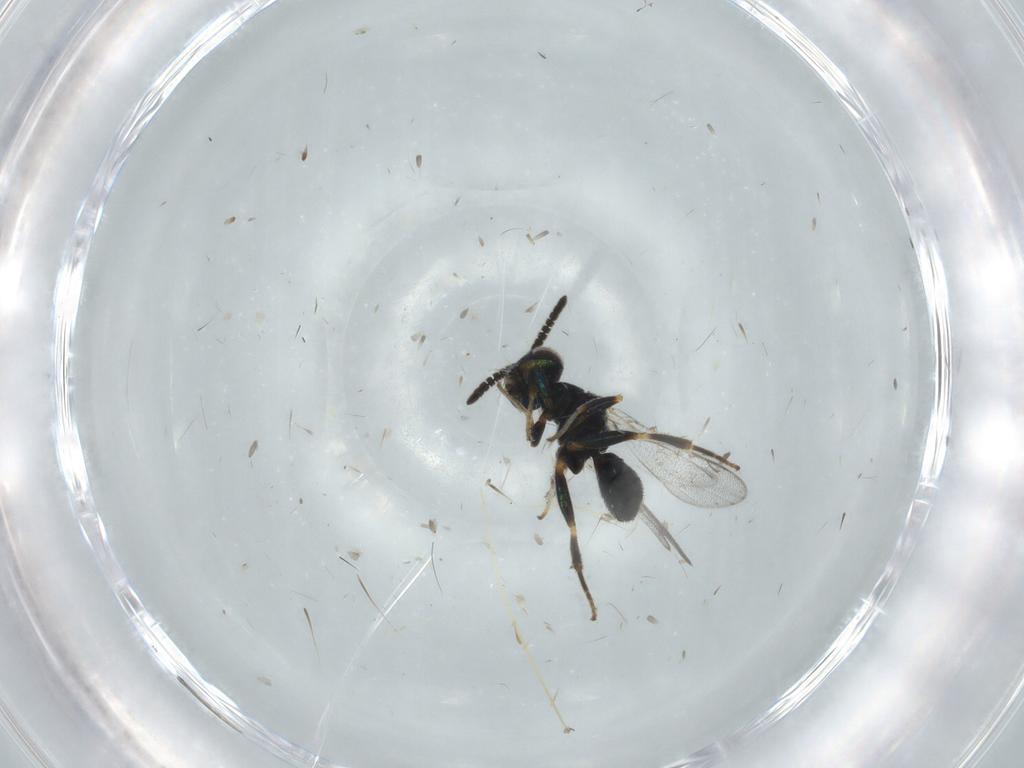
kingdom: Animalia
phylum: Arthropoda
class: Insecta
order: Hymenoptera
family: Cleonyminae
